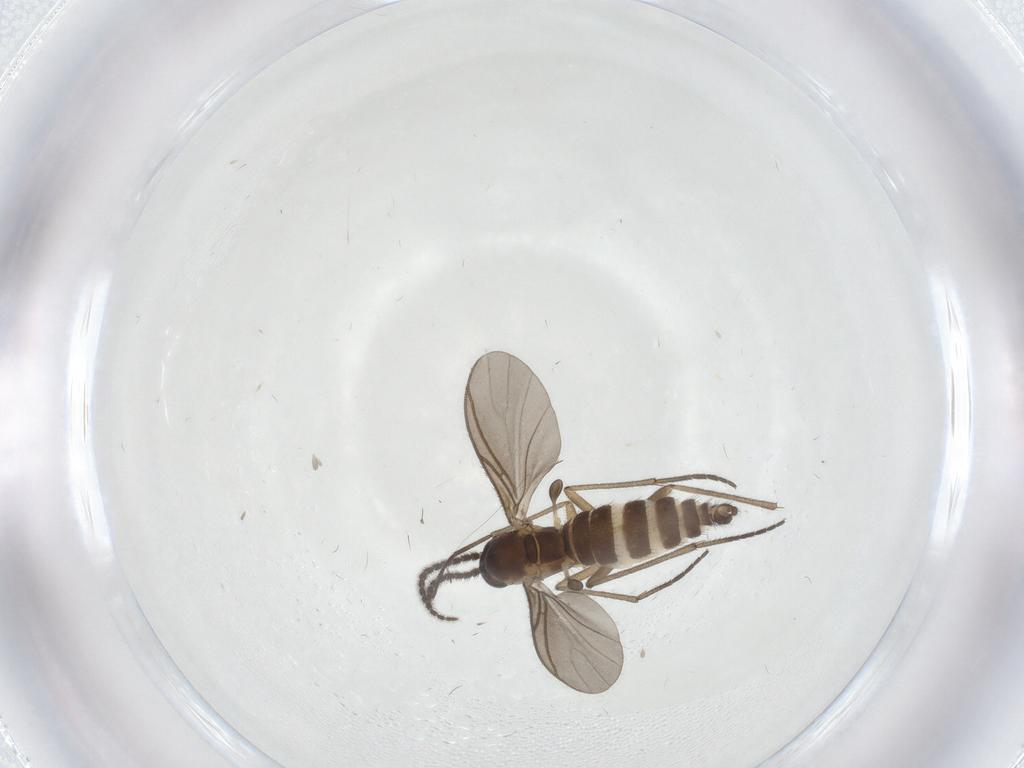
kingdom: Animalia
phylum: Arthropoda
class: Insecta
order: Diptera
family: Sciaridae
